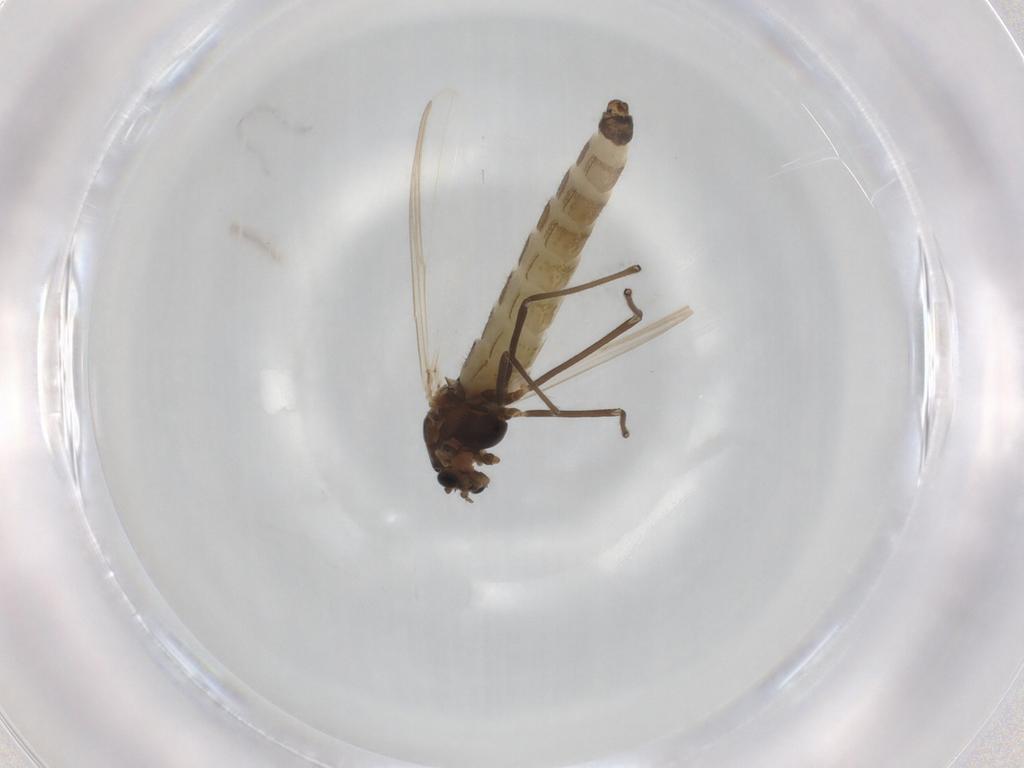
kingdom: Animalia
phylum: Arthropoda
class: Insecta
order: Diptera
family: Chironomidae
